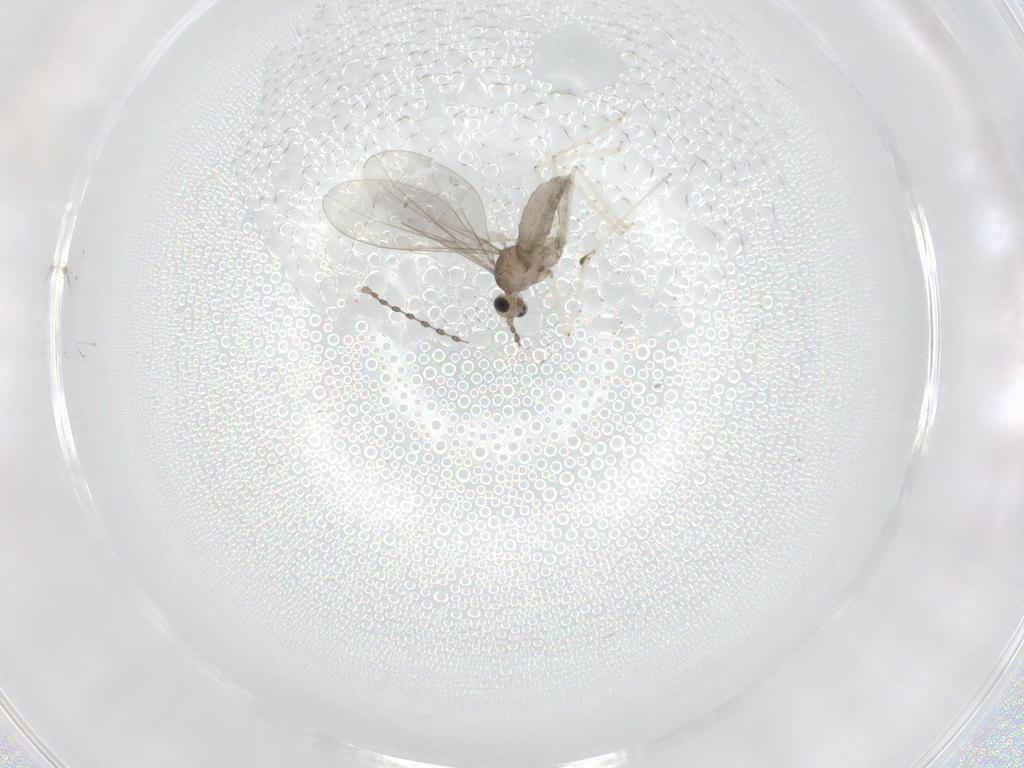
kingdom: Animalia
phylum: Arthropoda
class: Insecta
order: Diptera
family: Cecidomyiidae
